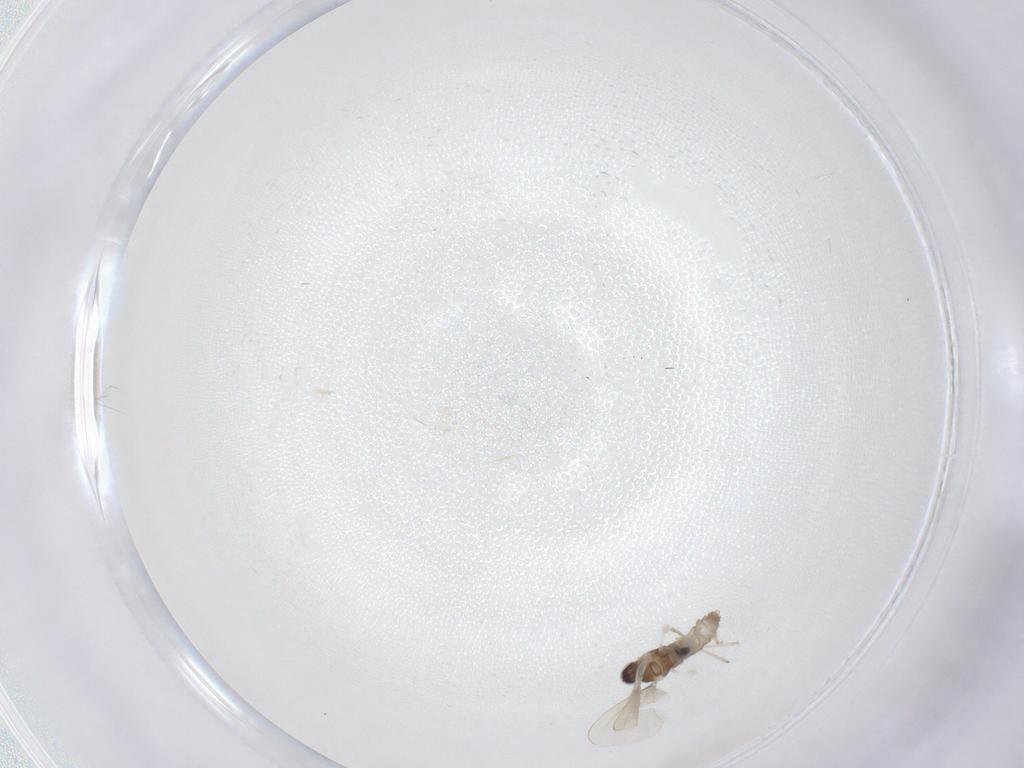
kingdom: Animalia
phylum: Arthropoda
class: Insecta
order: Diptera
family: Cecidomyiidae
